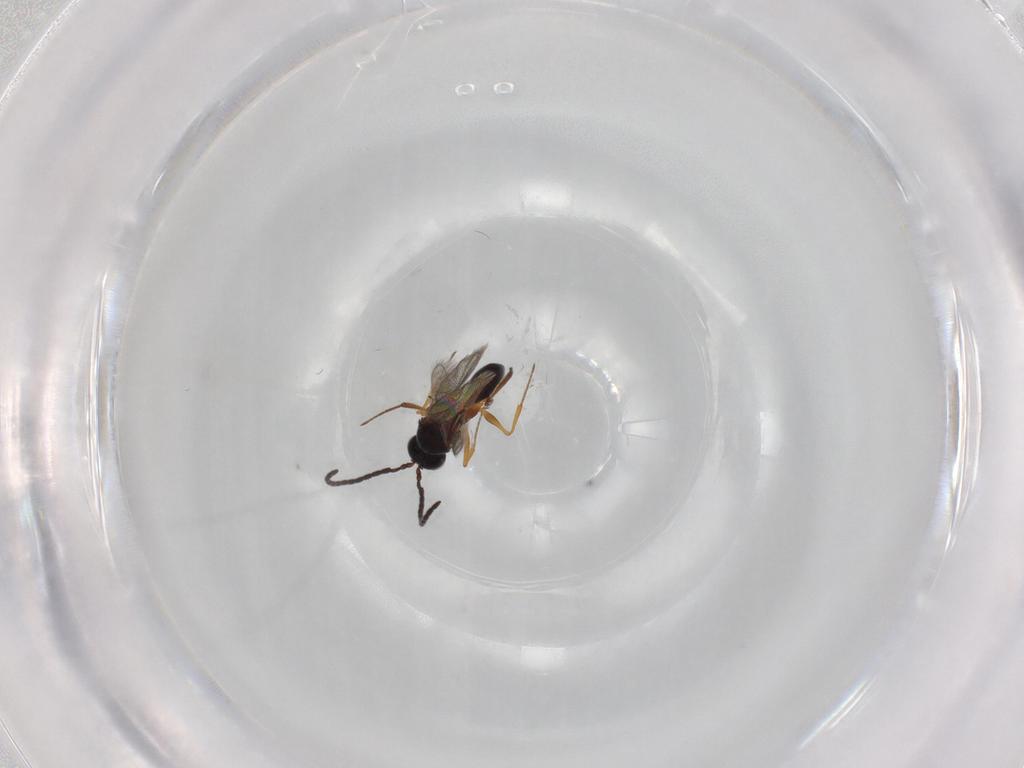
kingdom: Animalia
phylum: Arthropoda
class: Insecta
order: Hymenoptera
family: Figitidae
